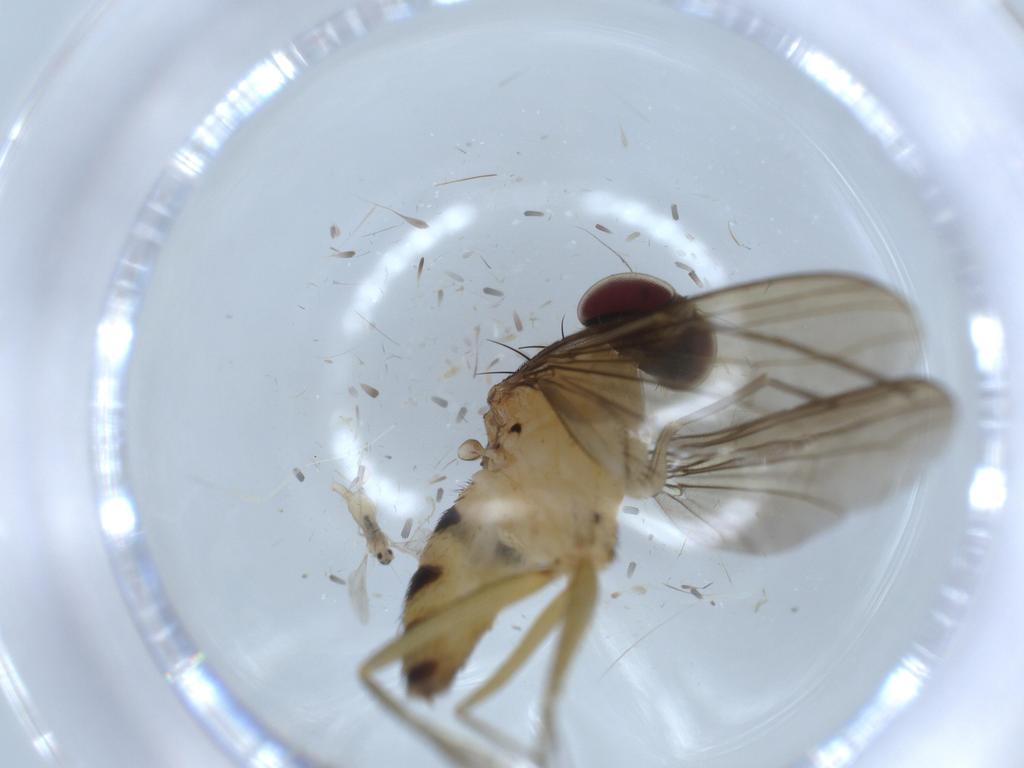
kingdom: Animalia
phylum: Arthropoda
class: Insecta
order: Diptera
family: Dolichopodidae
